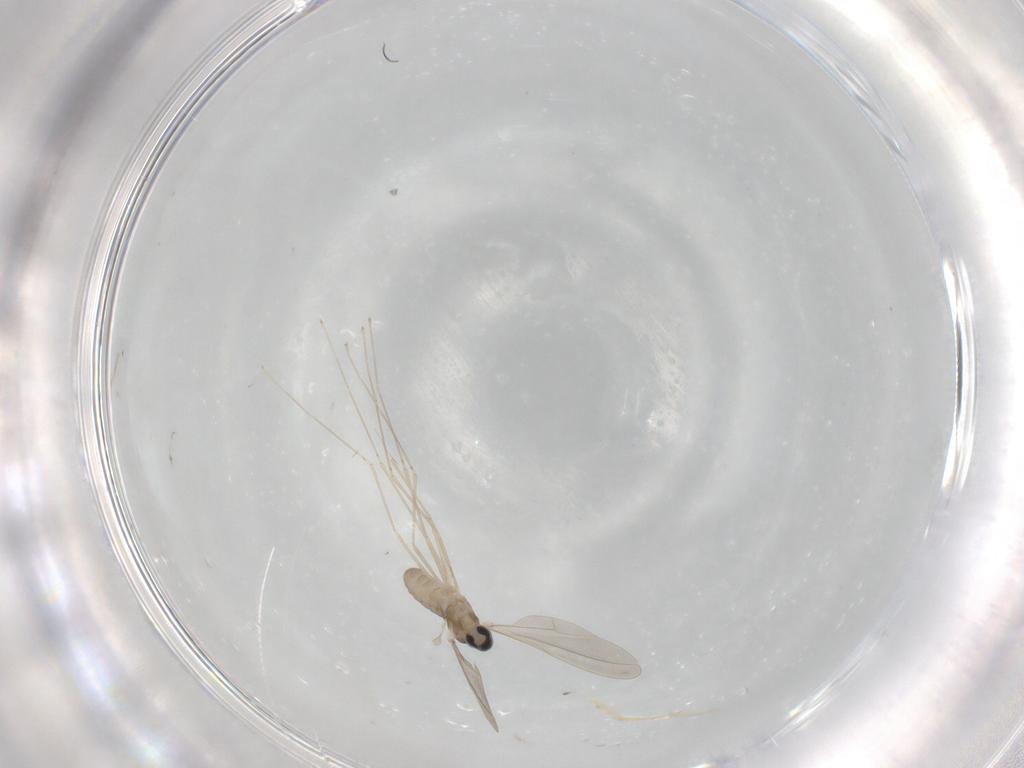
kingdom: Animalia
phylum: Arthropoda
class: Insecta
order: Diptera
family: Cecidomyiidae
